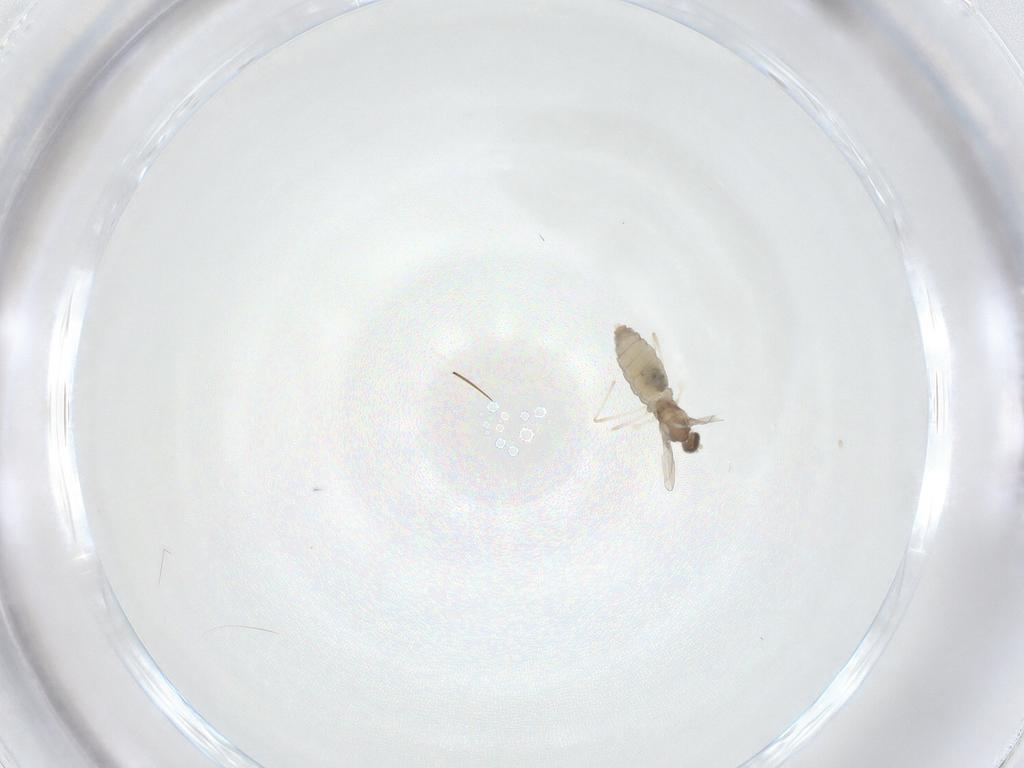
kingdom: Animalia
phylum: Arthropoda
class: Insecta
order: Diptera
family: Cecidomyiidae
